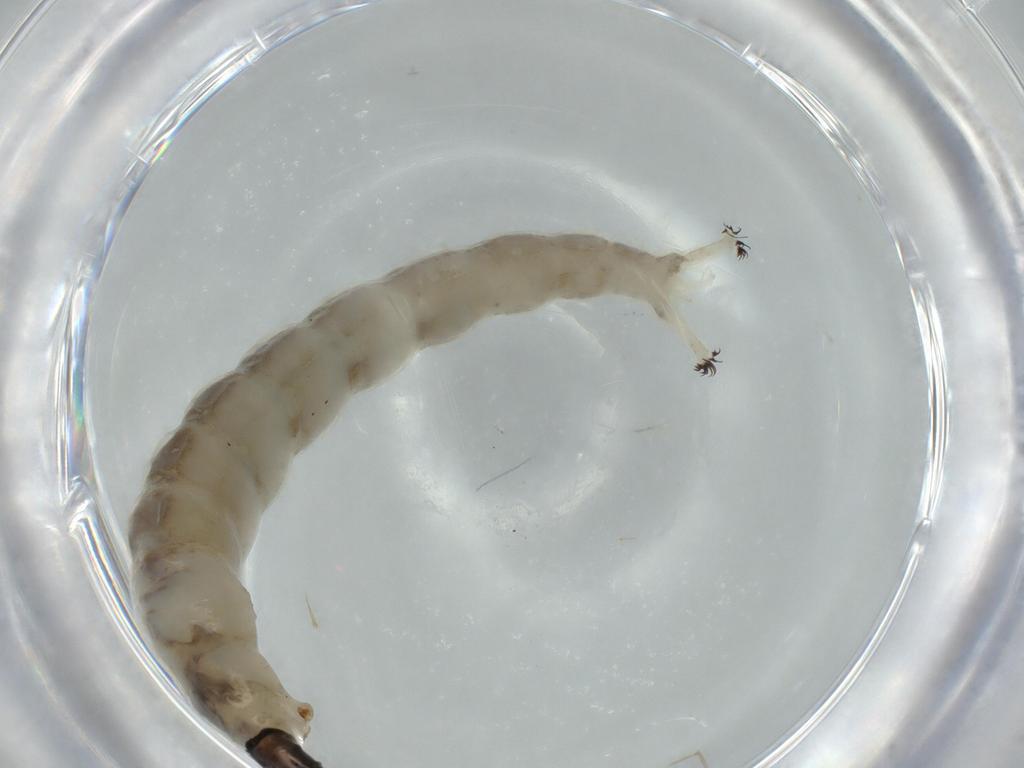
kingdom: Animalia
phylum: Arthropoda
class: Insecta
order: Diptera
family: Chironomidae
